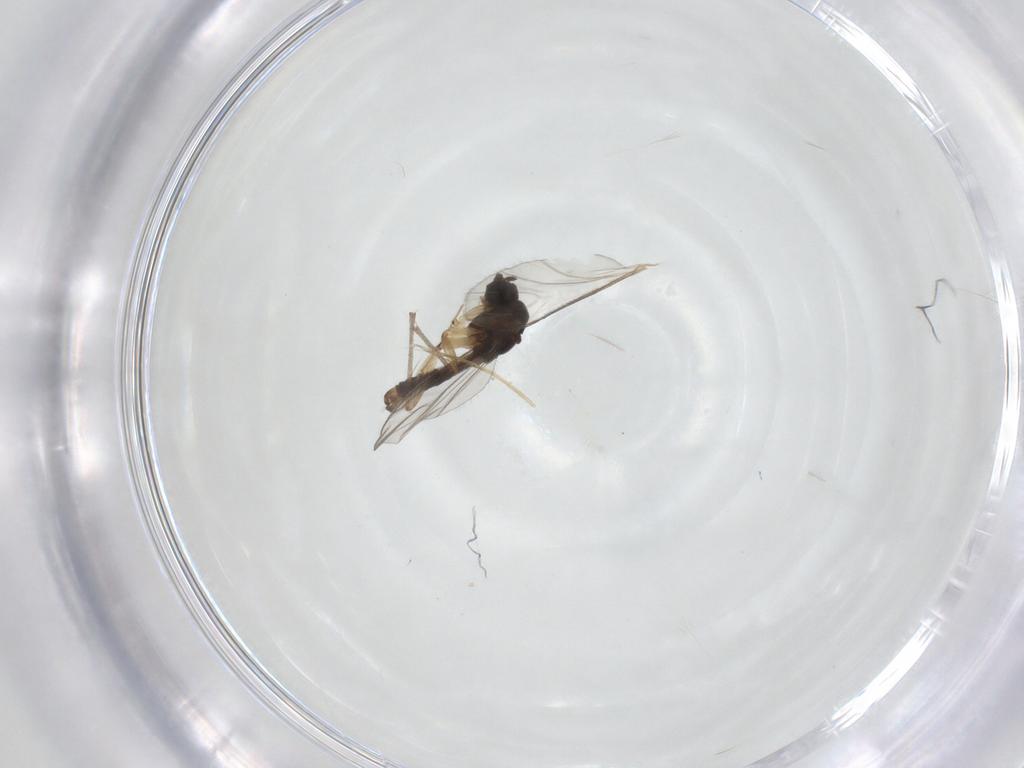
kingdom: Animalia
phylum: Arthropoda
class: Insecta
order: Diptera
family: Sciaridae
